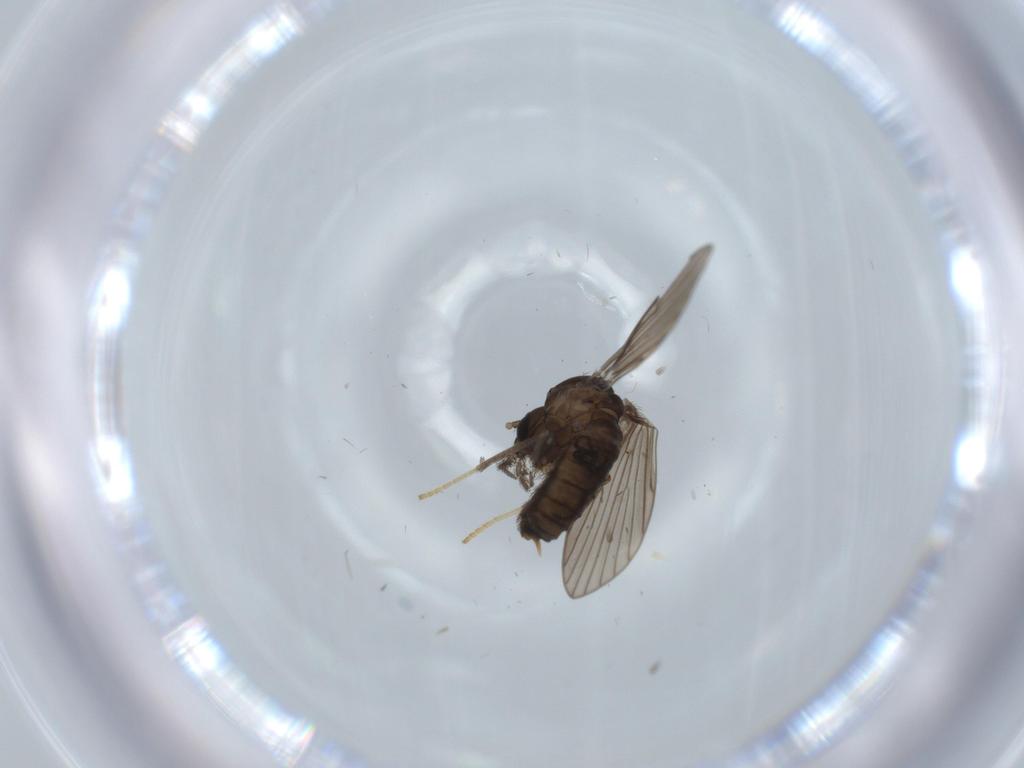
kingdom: Animalia
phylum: Arthropoda
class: Insecta
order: Diptera
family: Psychodidae
